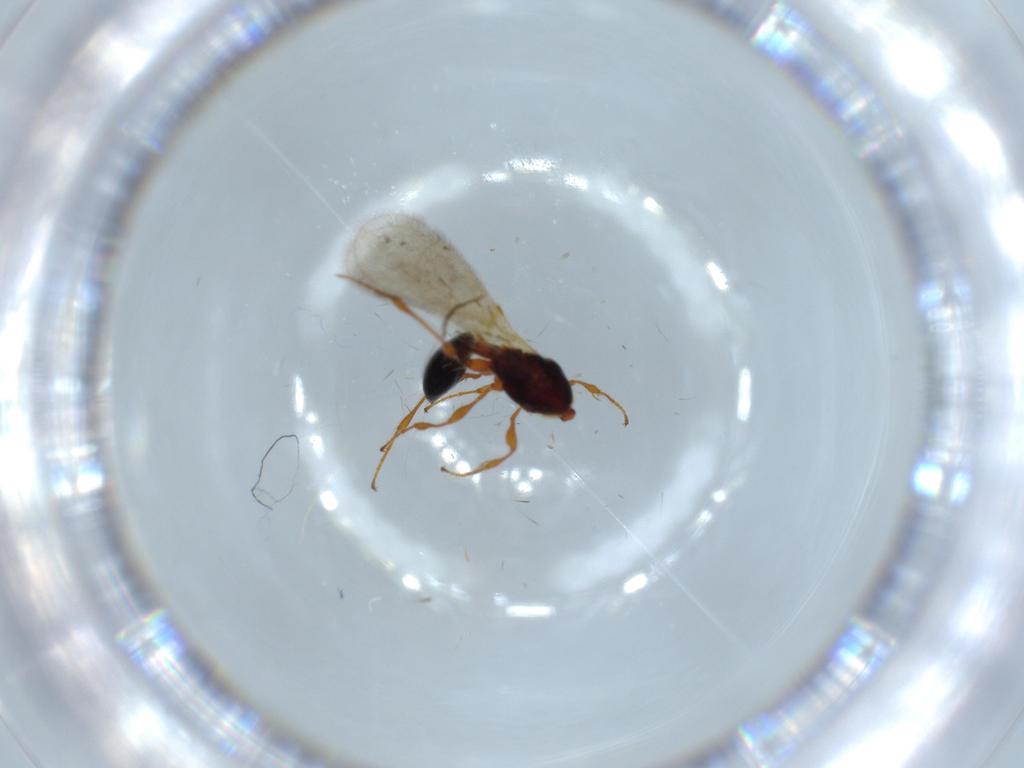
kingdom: Animalia
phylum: Arthropoda
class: Insecta
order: Hymenoptera
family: Diapriidae
